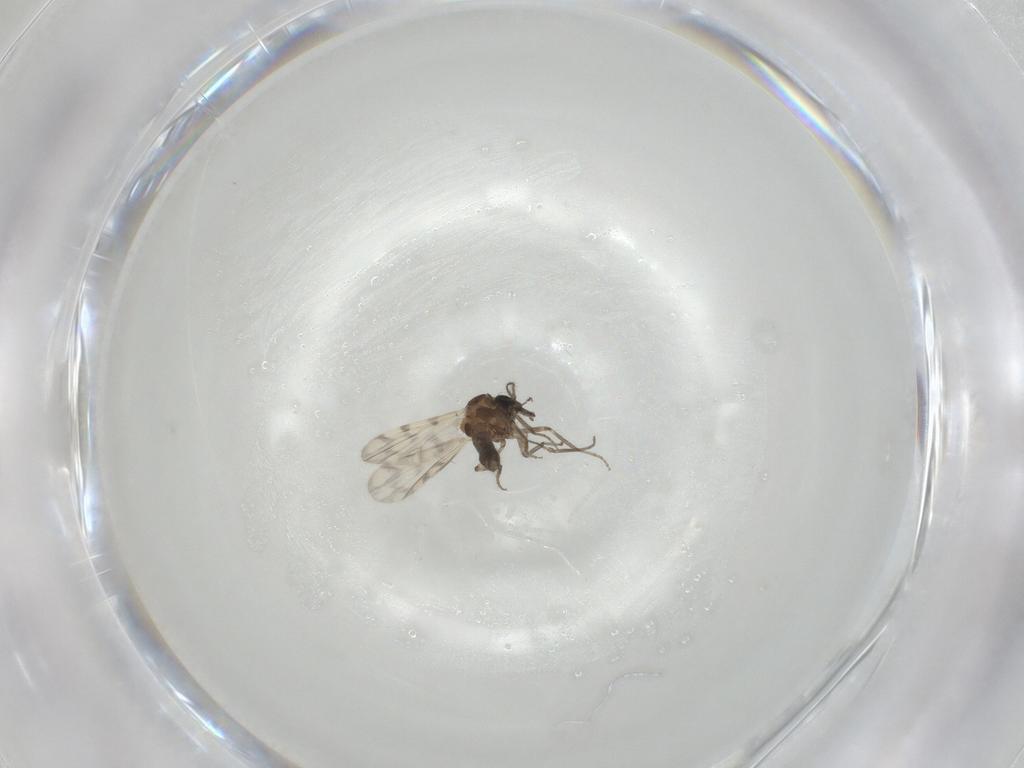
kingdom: Animalia
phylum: Arthropoda
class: Insecta
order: Diptera
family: Ceratopogonidae
